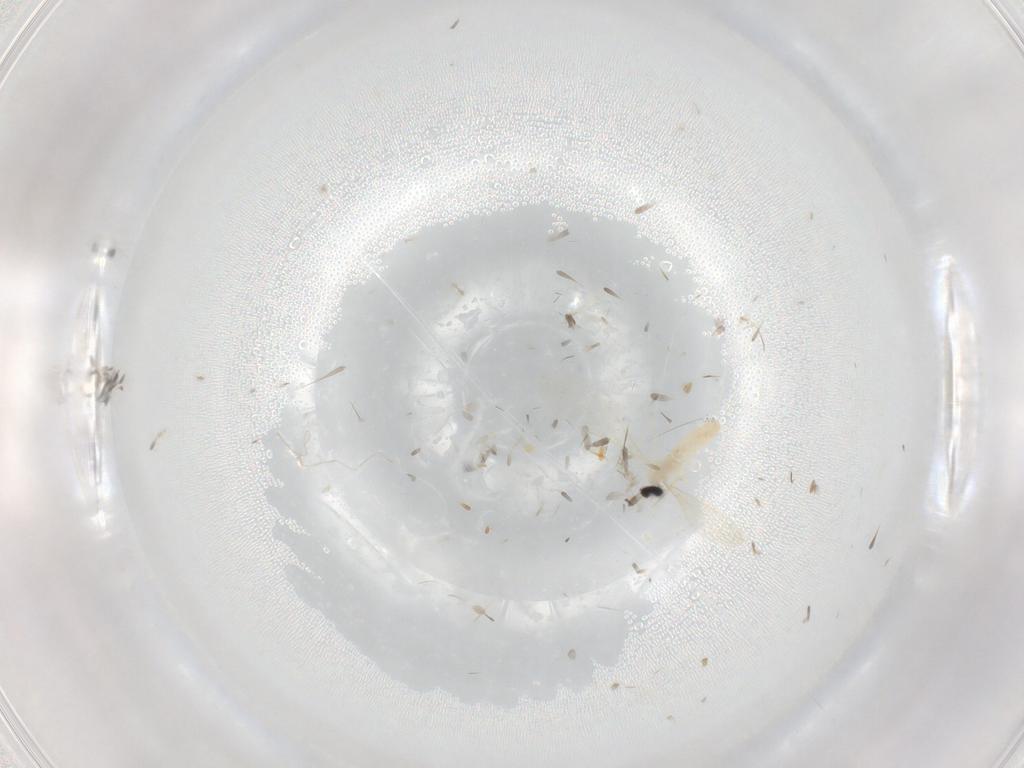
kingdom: Animalia
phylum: Arthropoda
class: Insecta
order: Diptera
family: Cecidomyiidae
